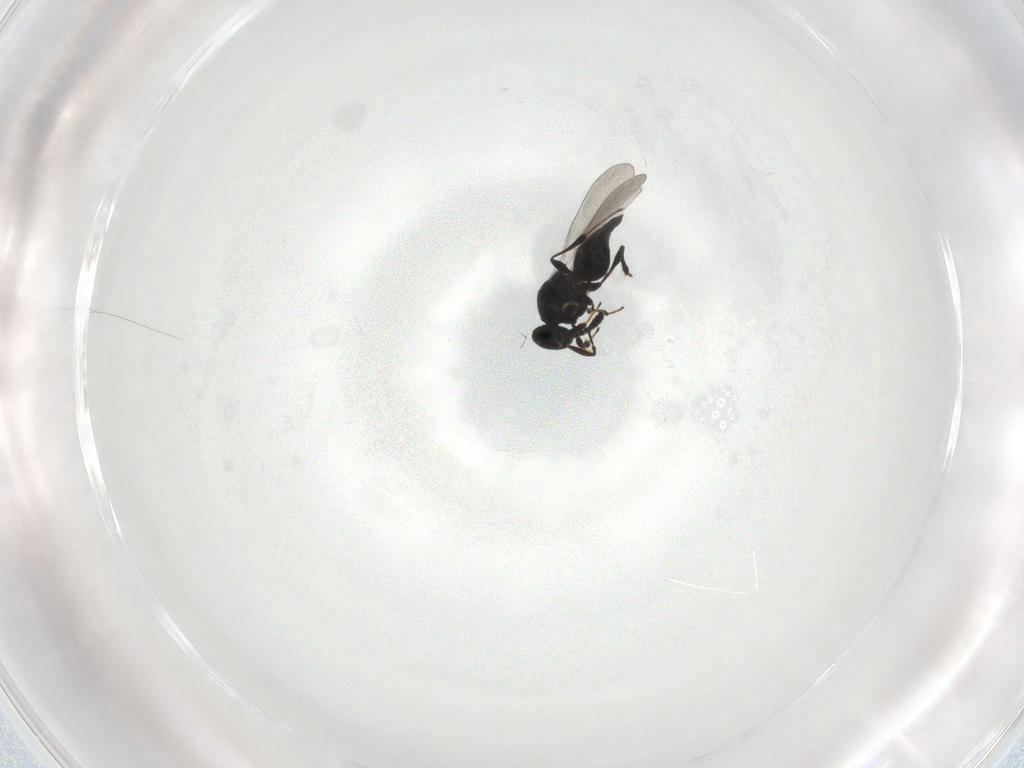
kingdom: Animalia
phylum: Arthropoda
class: Insecta
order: Hymenoptera
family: Platygastridae
